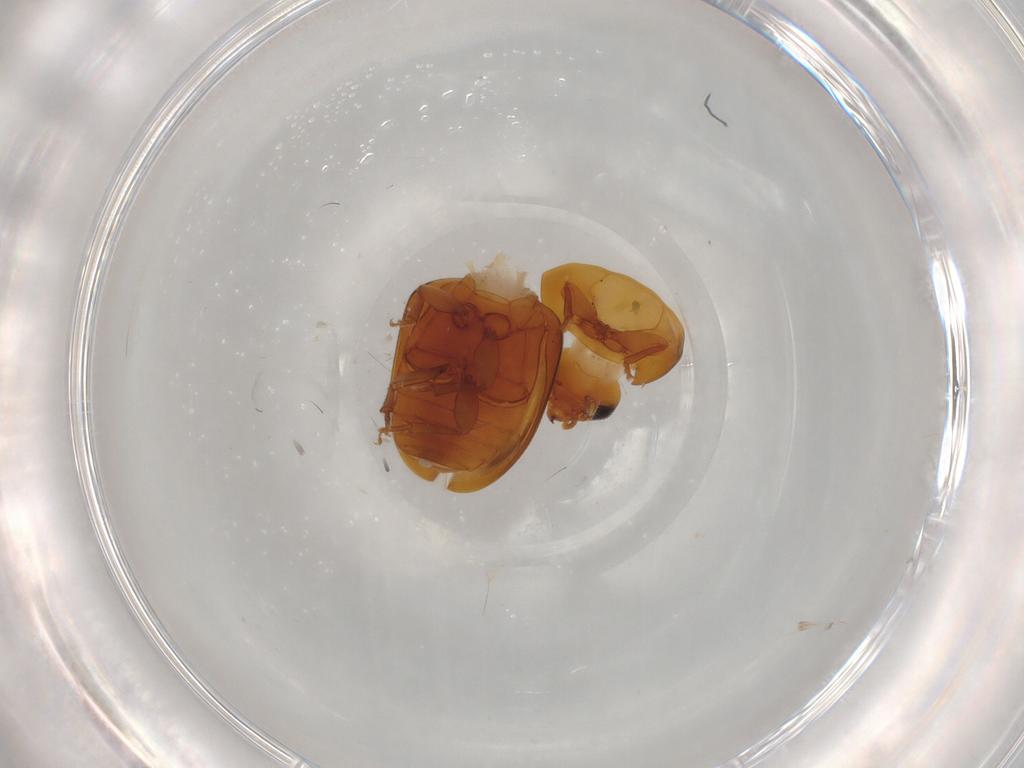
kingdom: Animalia
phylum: Arthropoda
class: Insecta
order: Coleoptera
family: Phalacridae
